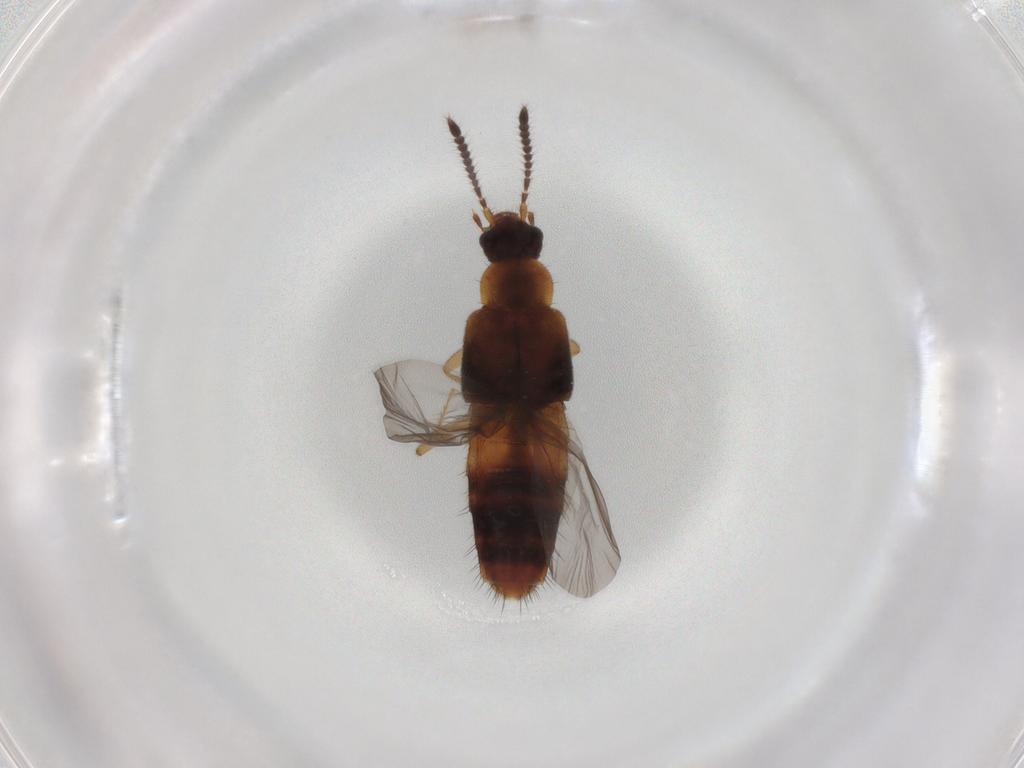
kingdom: Animalia
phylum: Arthropoda
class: Insecta
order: Coleoptera
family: Oedemeridae
